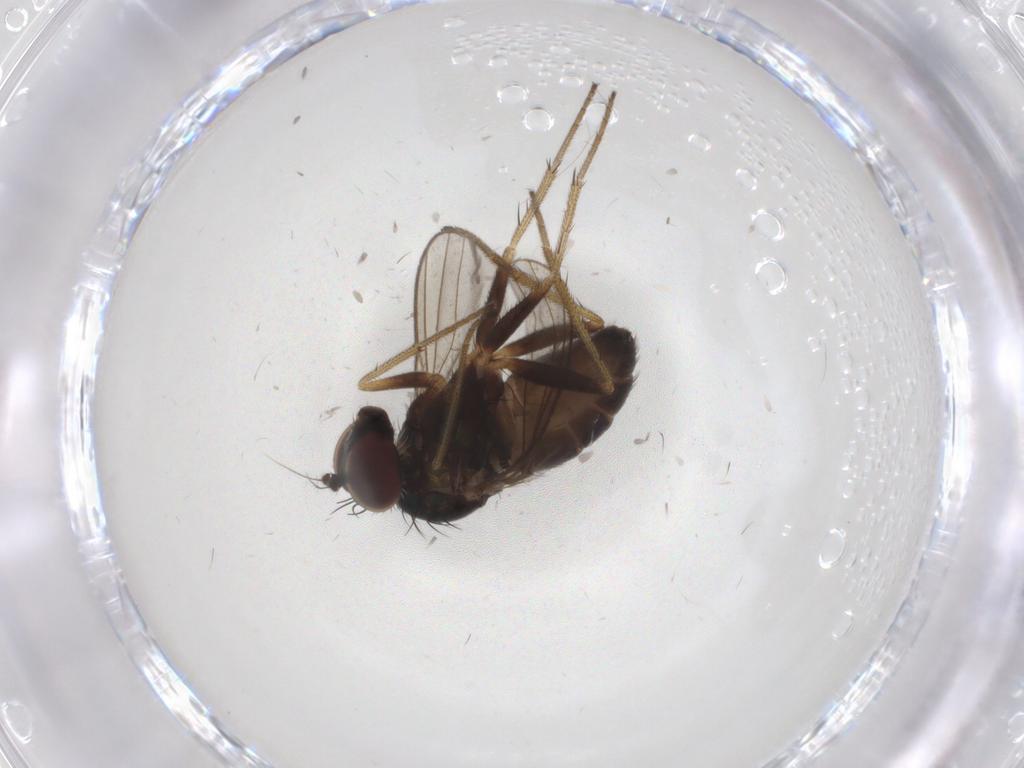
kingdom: Animalia
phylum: Arthropoda
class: Insecta
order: Diptera
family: Dolichopodidae
